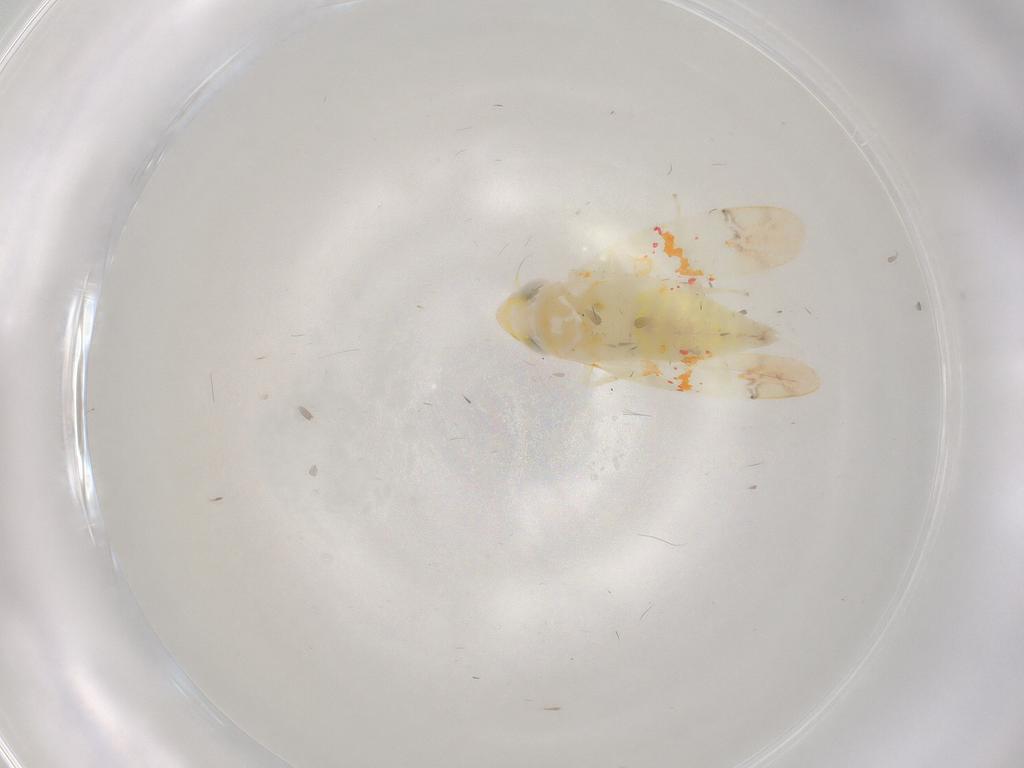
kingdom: Animalia
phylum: Arthropoda
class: Insecta
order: Hemiptera
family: Cicadellidae
